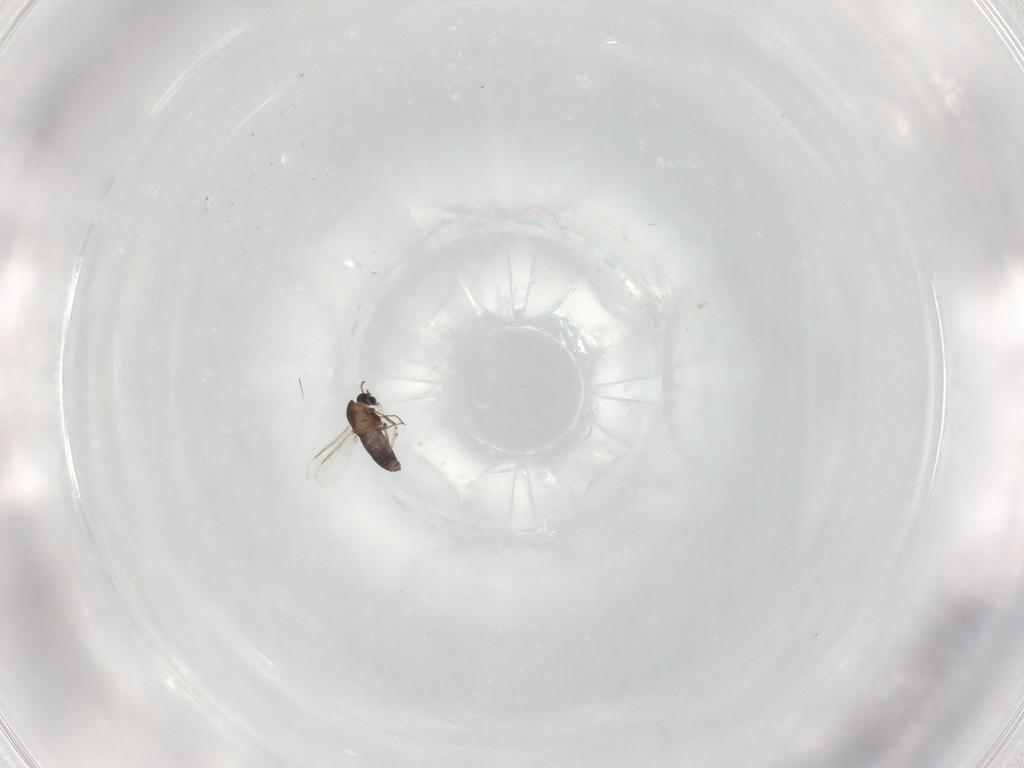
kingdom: Animalia
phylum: Arthropoda
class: Insecta
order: Diptera
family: Chironomidae
